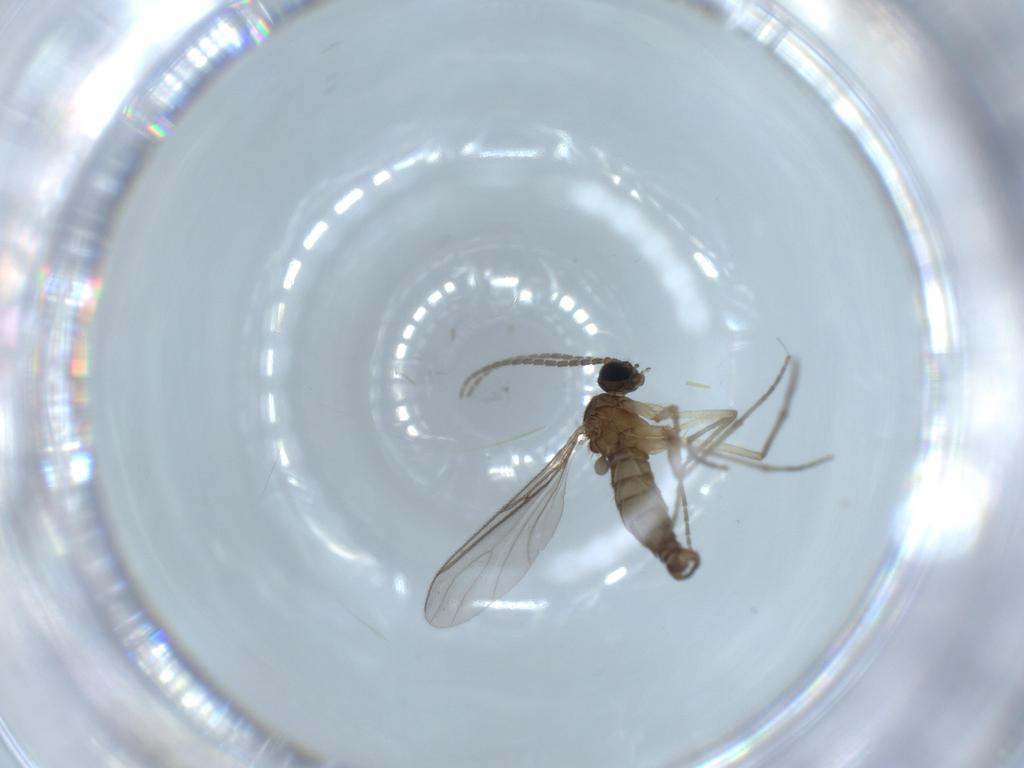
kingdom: Animalia
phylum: Arthropoda
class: Insecta
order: Diptera
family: Sciaridae
